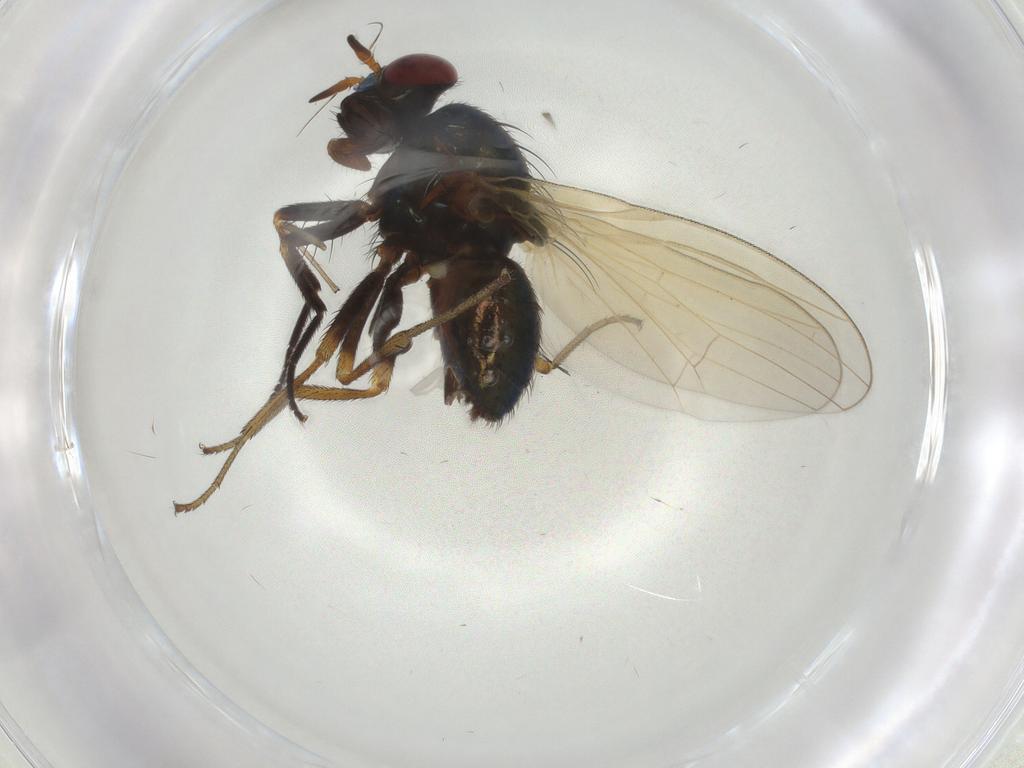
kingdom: Animalia
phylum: Arthropoda
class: Insecta
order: Diptera
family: Lauxaniidae
